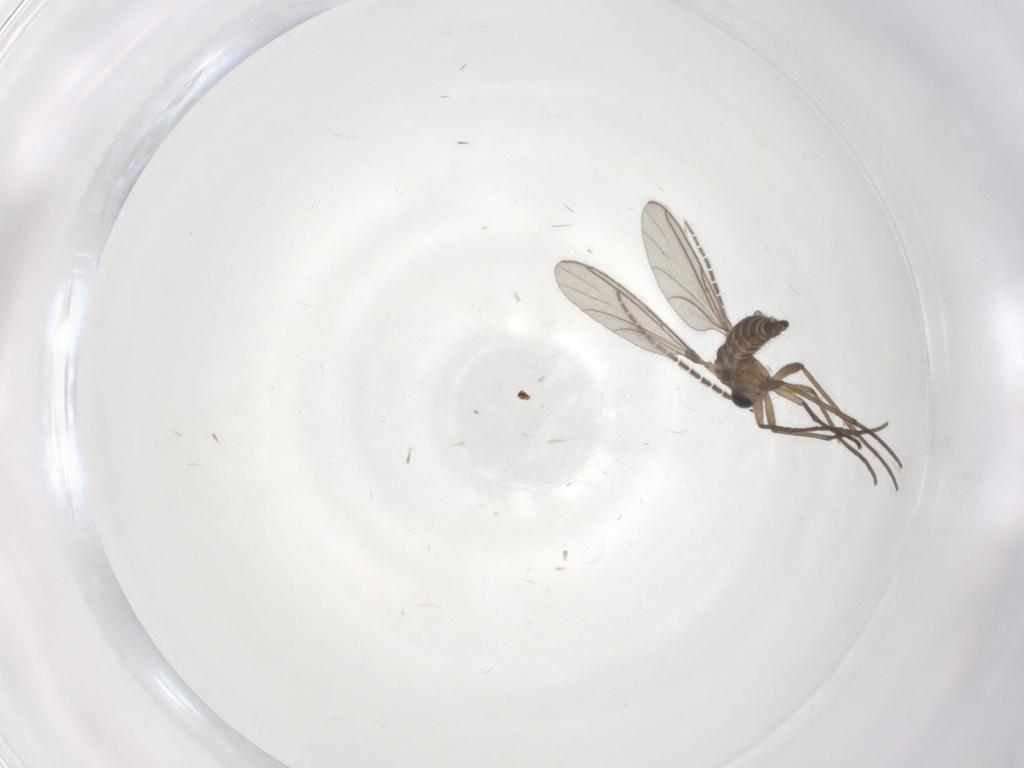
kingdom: Animalia
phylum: Arthropoda
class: Insecta
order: Diptera
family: Sciaridae
